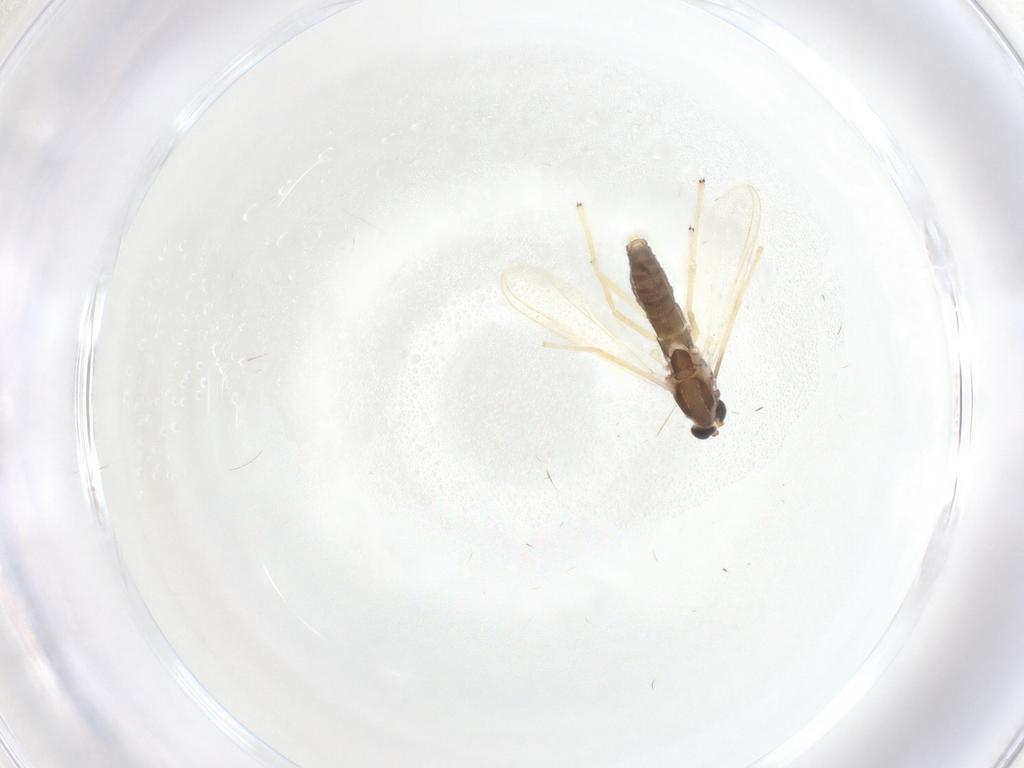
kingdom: Animalia
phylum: Arthropoda
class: Insecta
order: Diptera
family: Chironomidae
